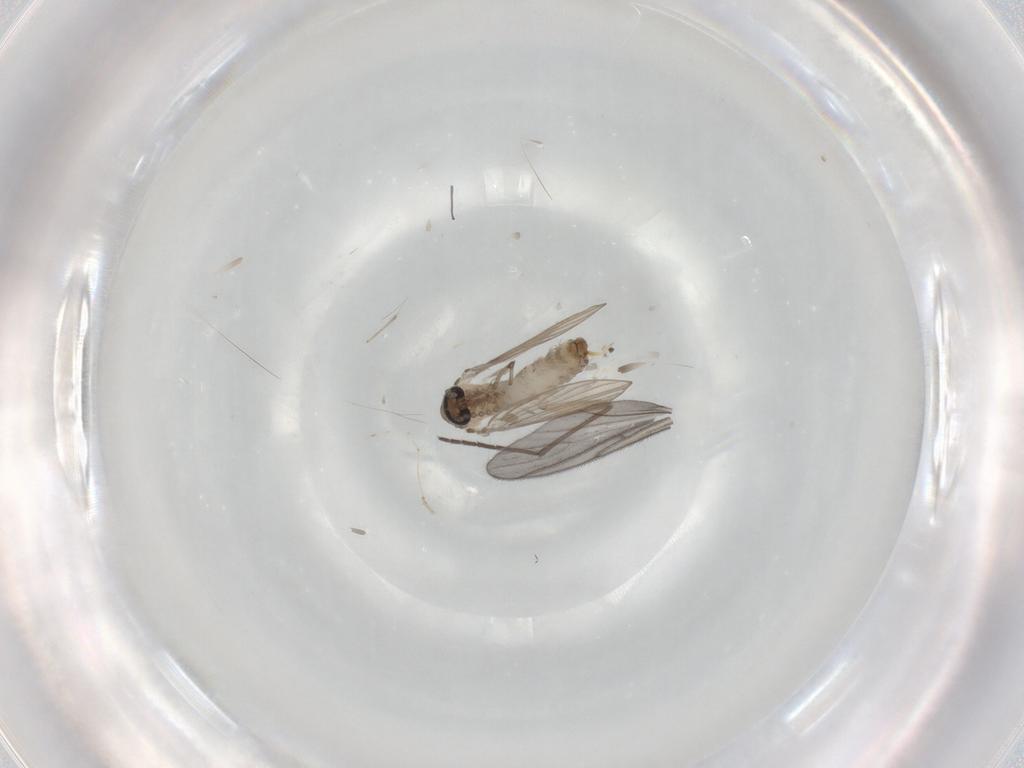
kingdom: Animalia
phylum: Arthropoda
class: Insecta
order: Diptera
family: Psychodidae
